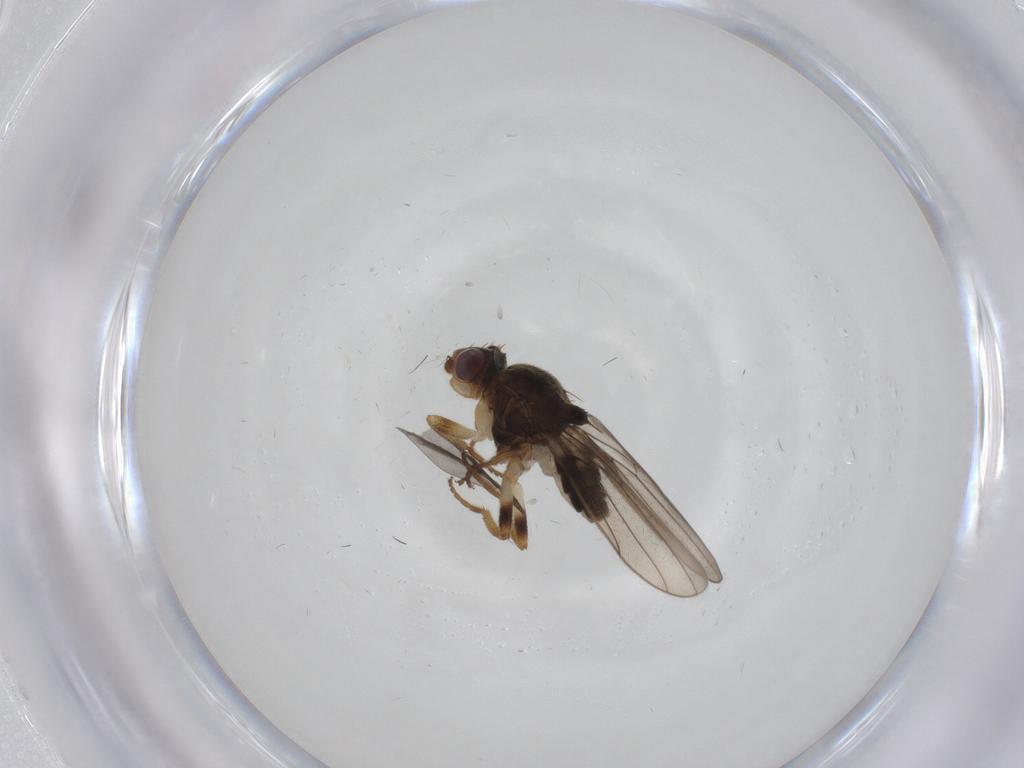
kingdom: Animalia
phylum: Arthropoda
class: Insecta
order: Diptera
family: Chloropidae
